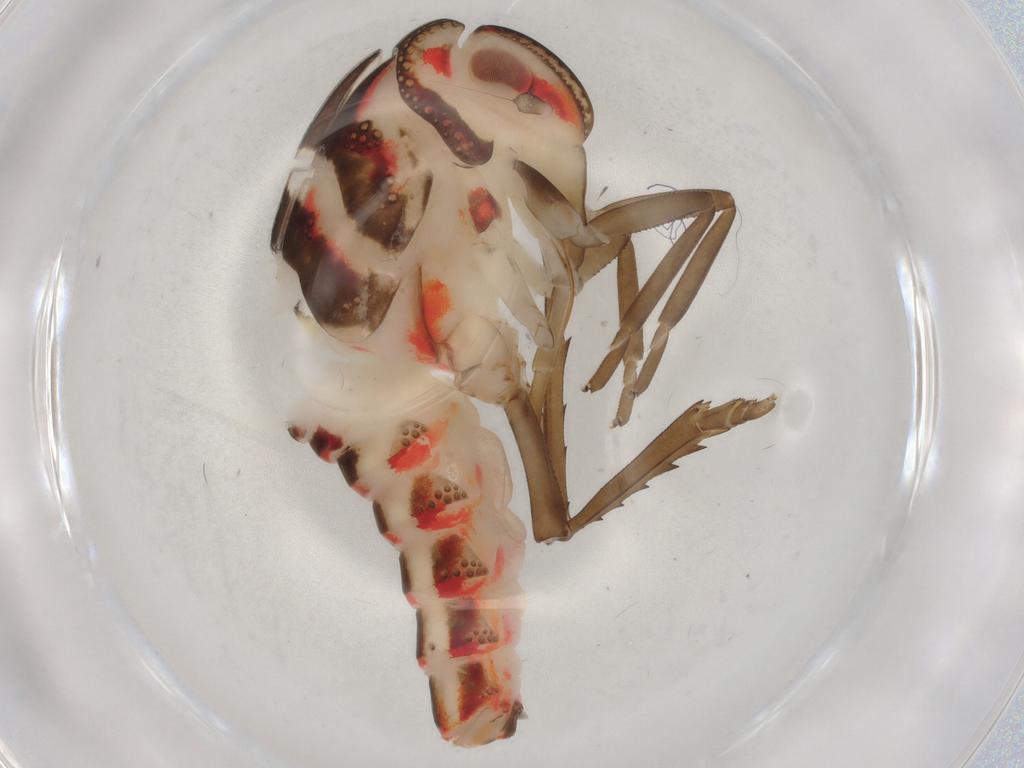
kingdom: Animalia
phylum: Arthropoda
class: Insecta
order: Hemiptera
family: Nogodinidae
